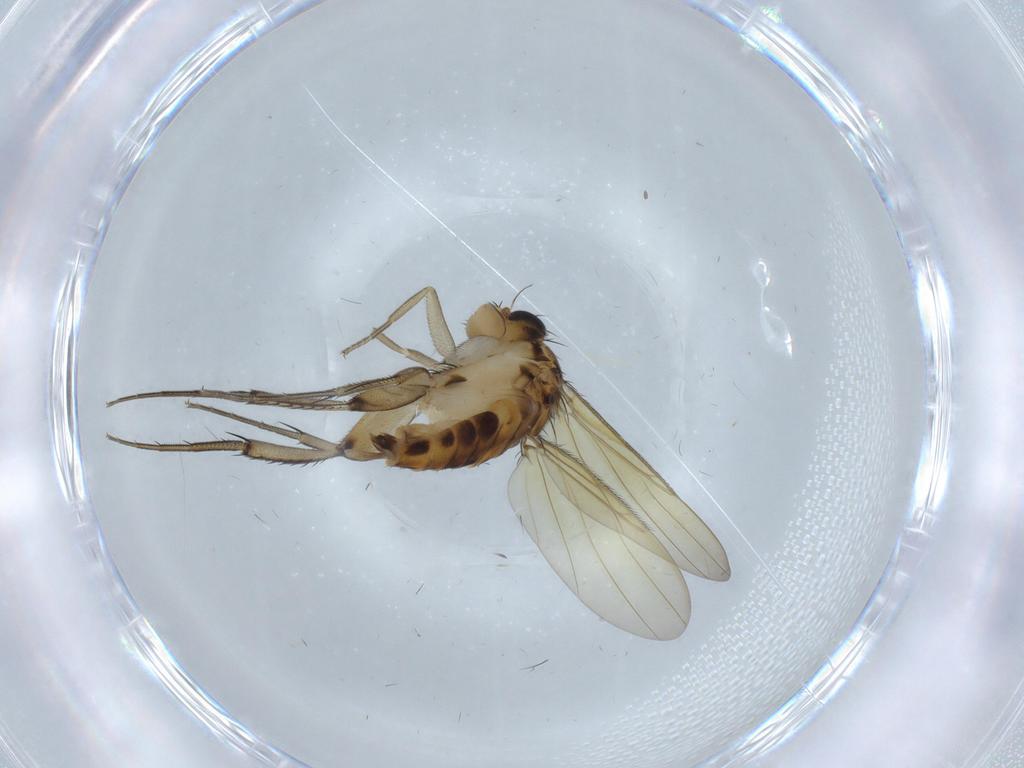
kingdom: Animalia
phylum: Arthropoda
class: Insecta
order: Diptera
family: Phoridae
